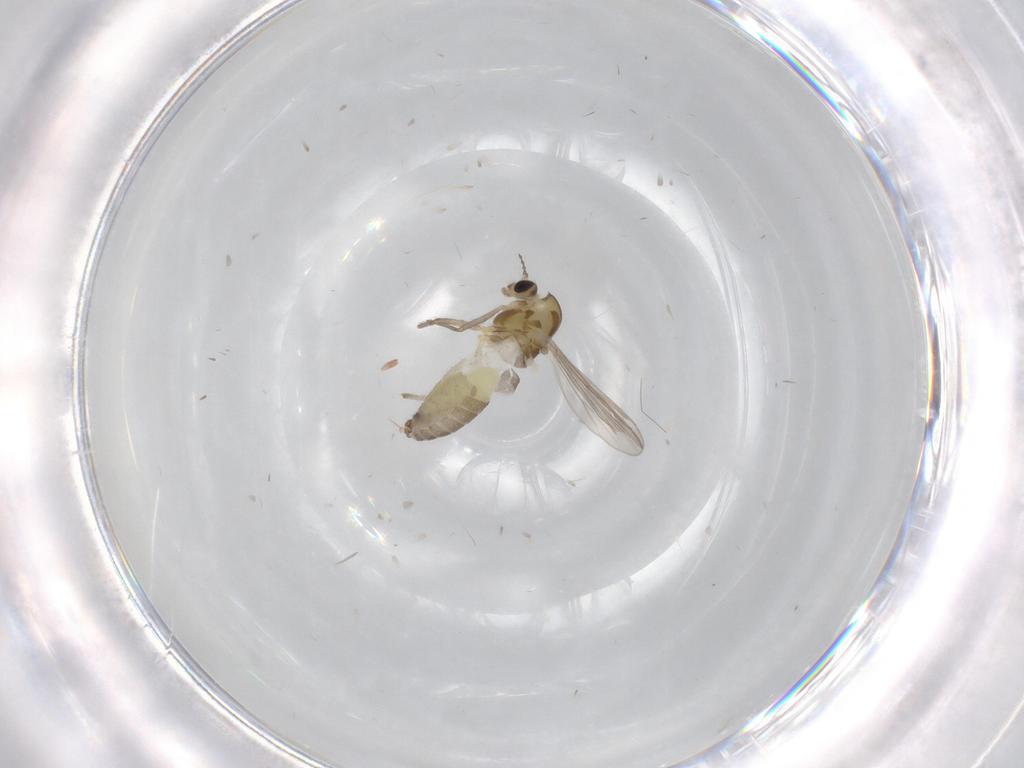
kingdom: Animalia
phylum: Arthropoda
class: Insecta
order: Diptera
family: Chironomidae
